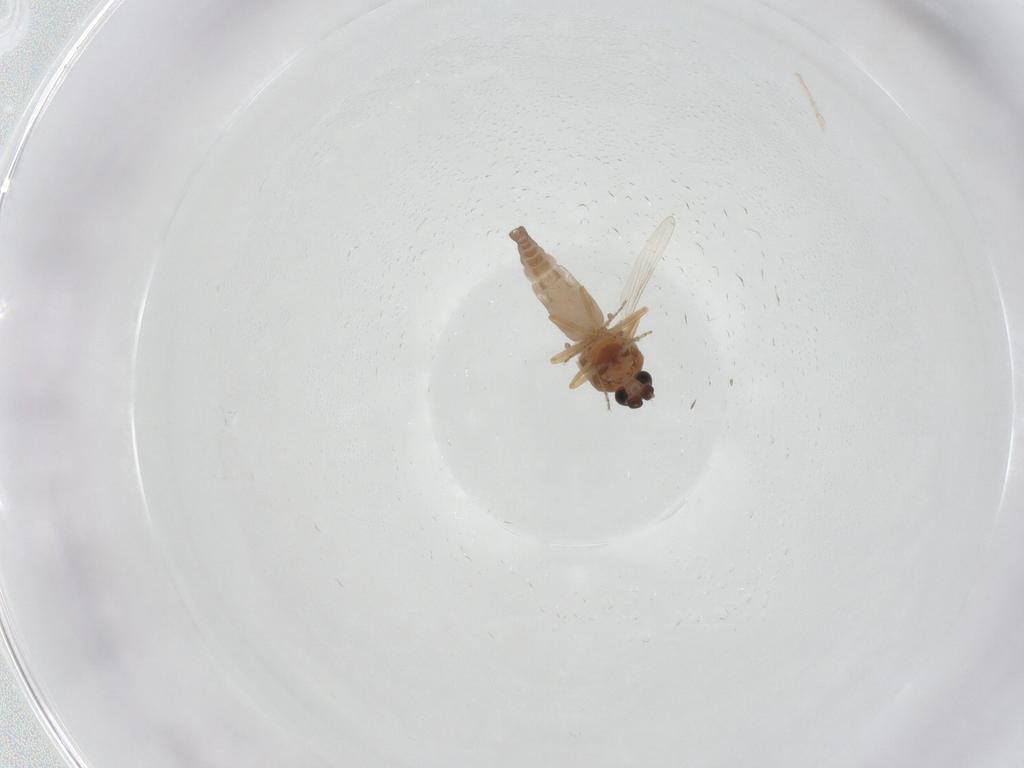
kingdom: Animalia
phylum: Arthropoda
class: Insecta
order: Diptera
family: Ceratopogonidae
